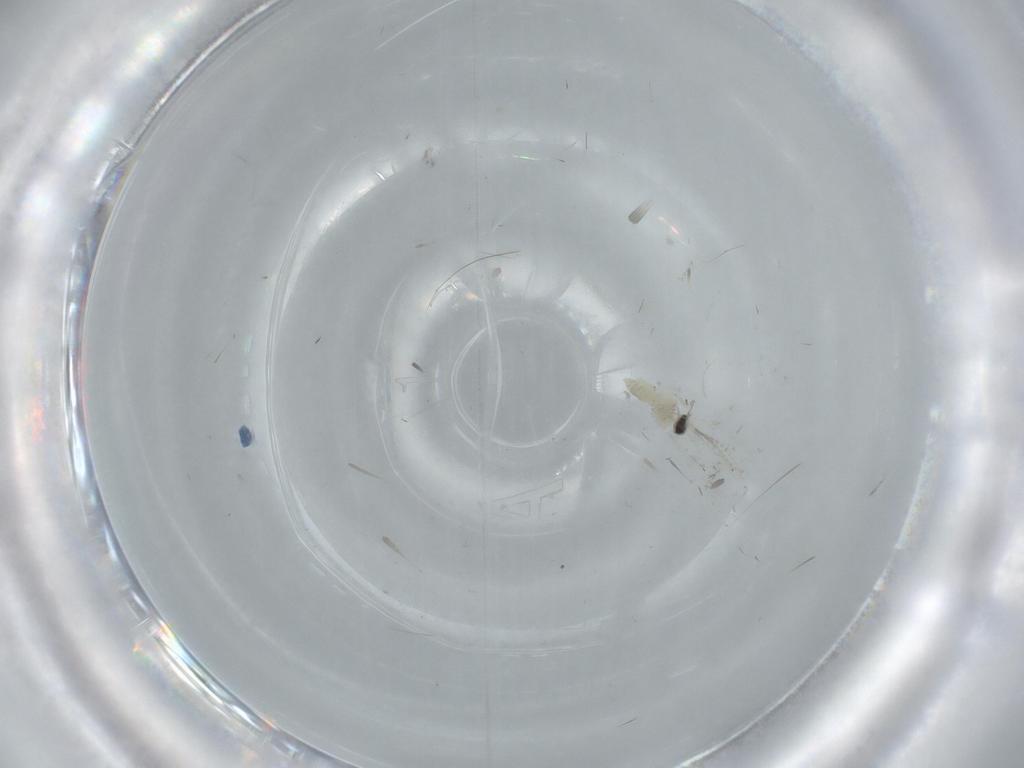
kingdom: Animalia
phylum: Arthropoda
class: Insecta
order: Diptera
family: Cecidomyiidae
